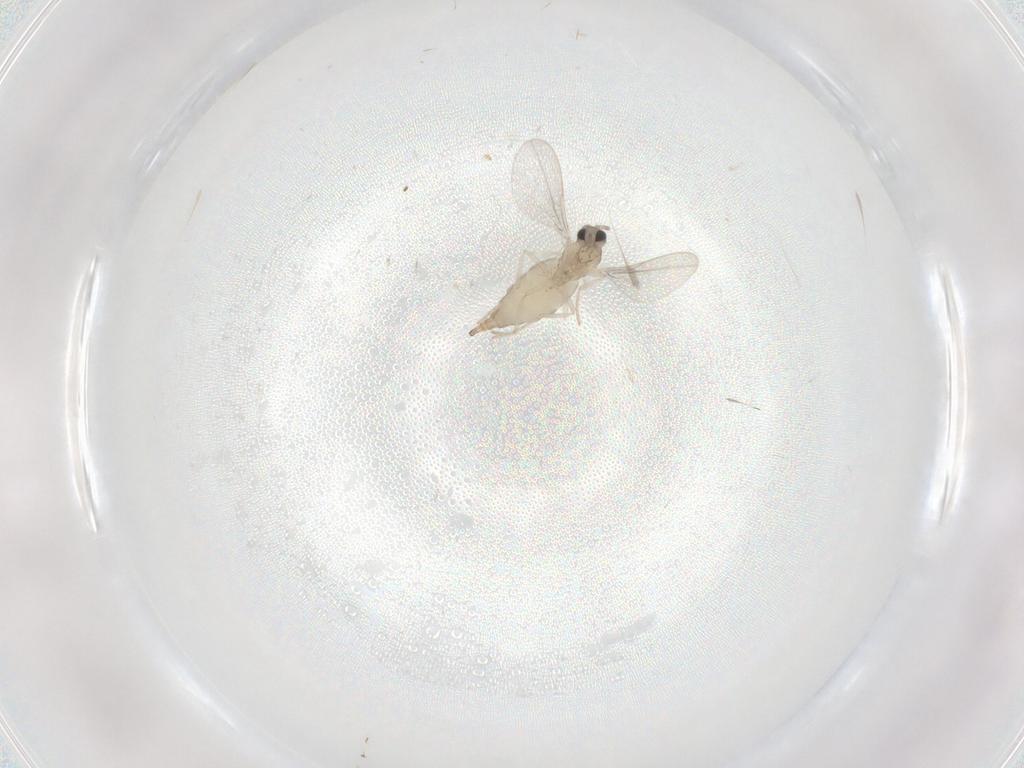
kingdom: Animalia
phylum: Arthropoda
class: Insecta
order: Diptera
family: Cecidomyiidae
